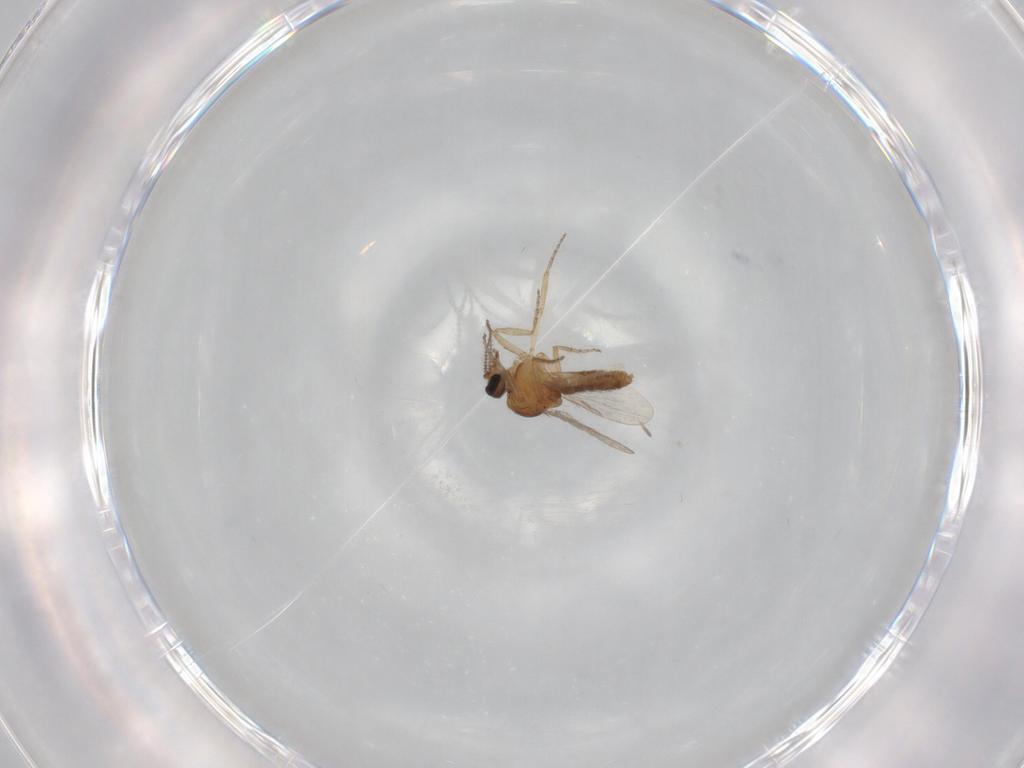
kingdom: Animalia
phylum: Arthropoda
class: Insecta
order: Diptera
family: Ceratopogonidae
